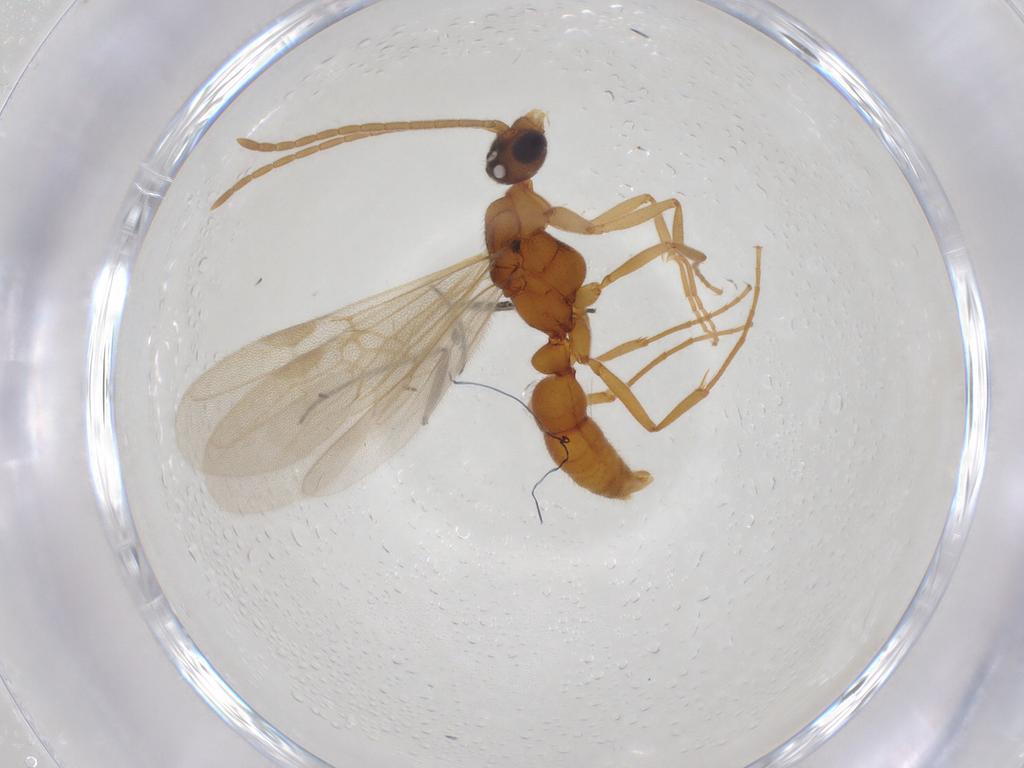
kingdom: Animalia
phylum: Arthropoda
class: Insecta
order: Hymenoptera
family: Formicidae
